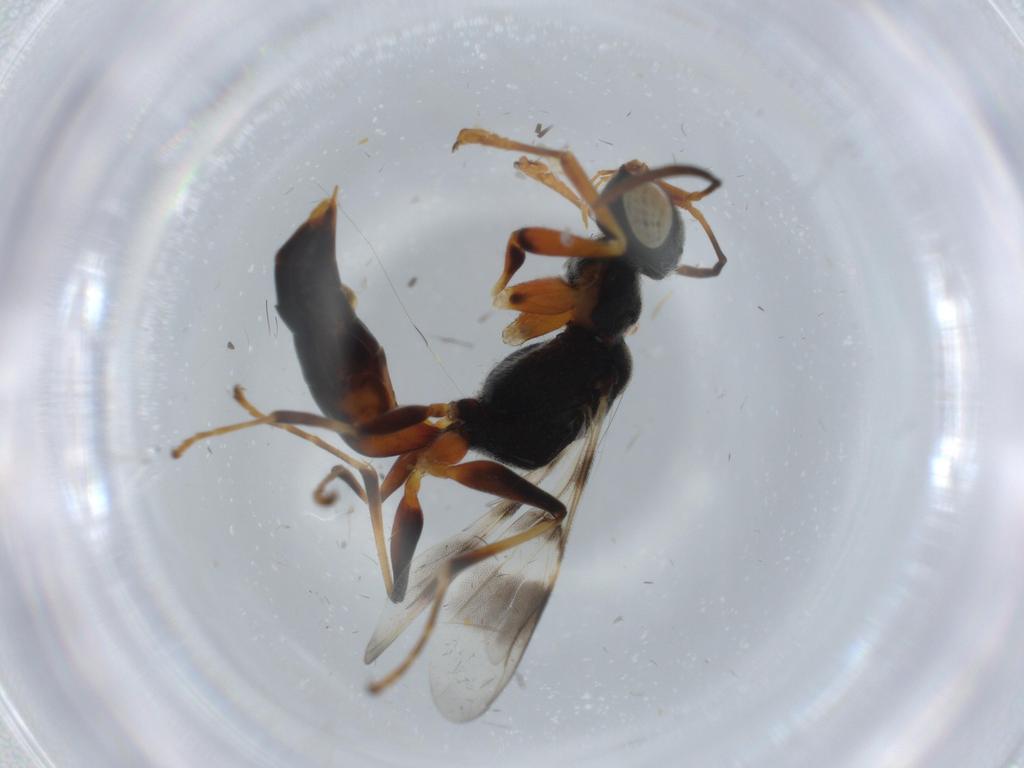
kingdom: Animalia
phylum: Arthropoda
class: Insecta
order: Hymenoptera
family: Dryinidae
